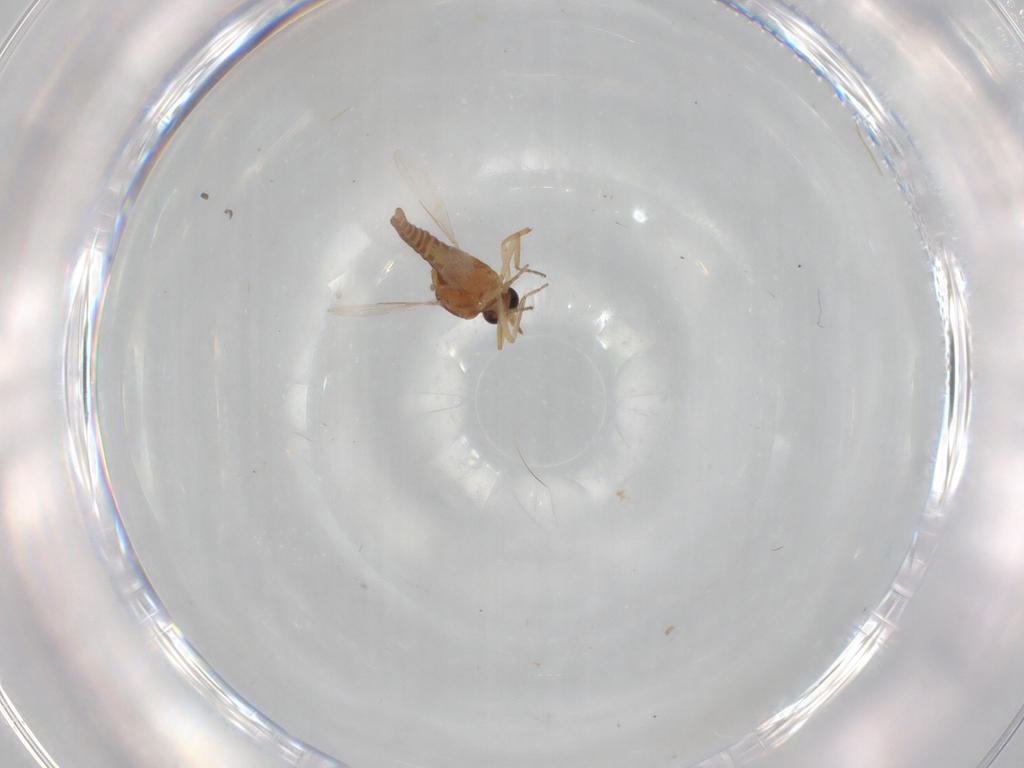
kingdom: Animalia
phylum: Arthropoda
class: Insecta
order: Diptera
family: Ceratopogonidae
